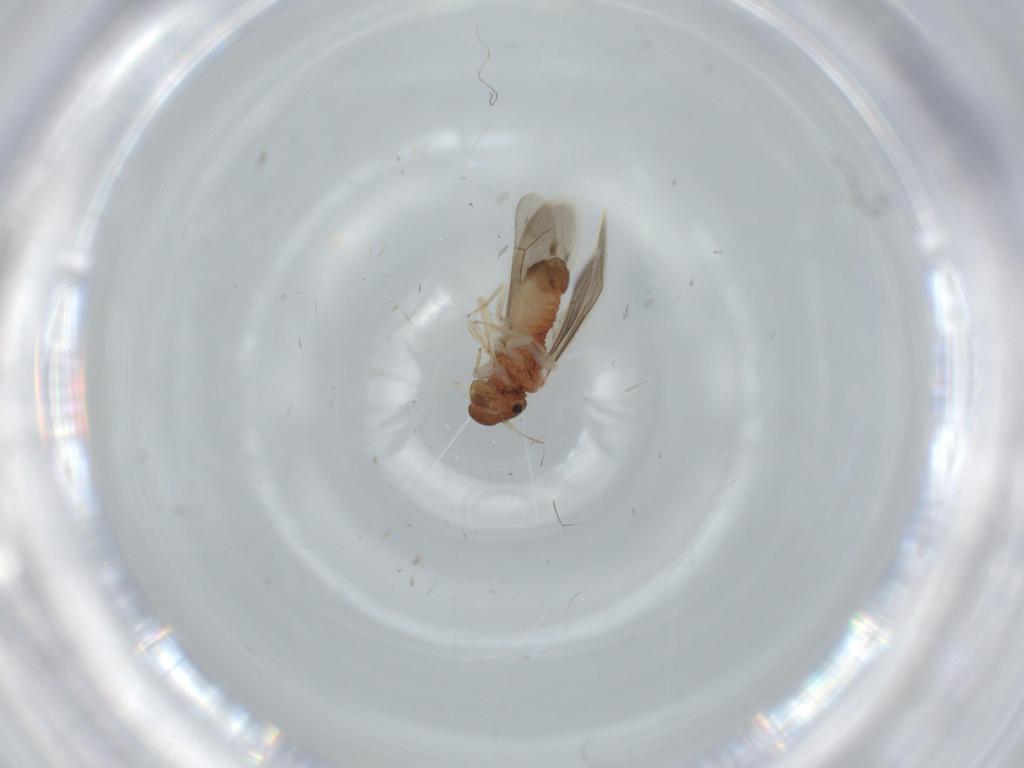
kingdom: Animalia
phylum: Arthropoda
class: Insecta
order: Psocodea
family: Archipsocidae
